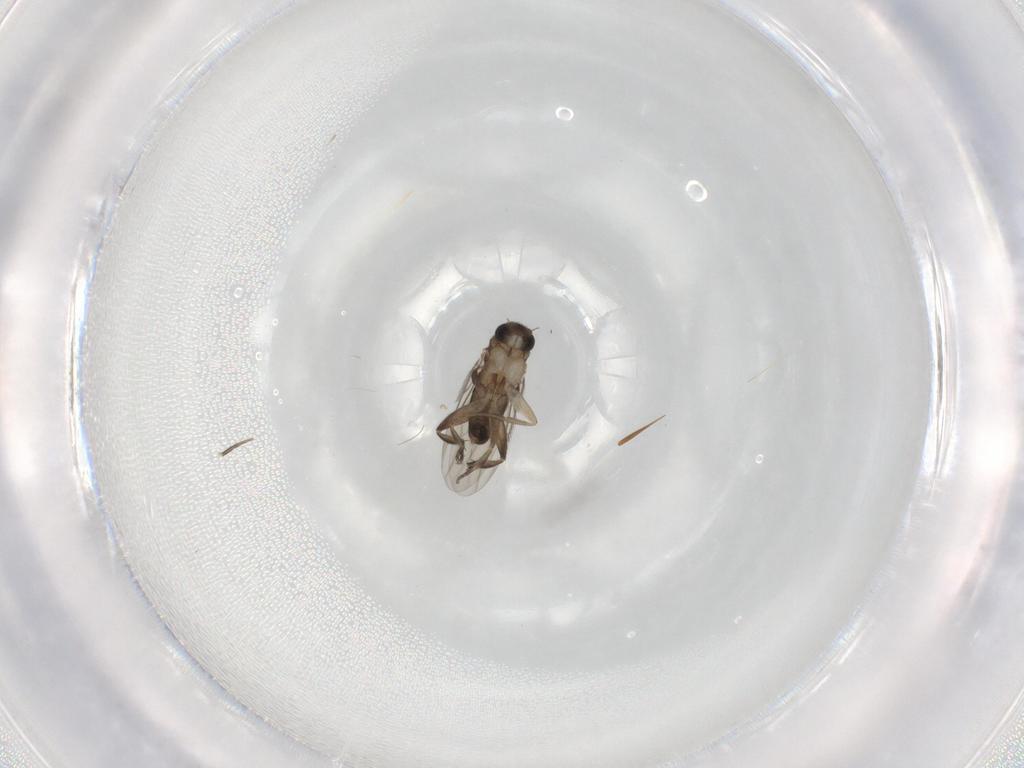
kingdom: Animalia
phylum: Arthropoda
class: Insecta
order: Diptera
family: Phoridae
